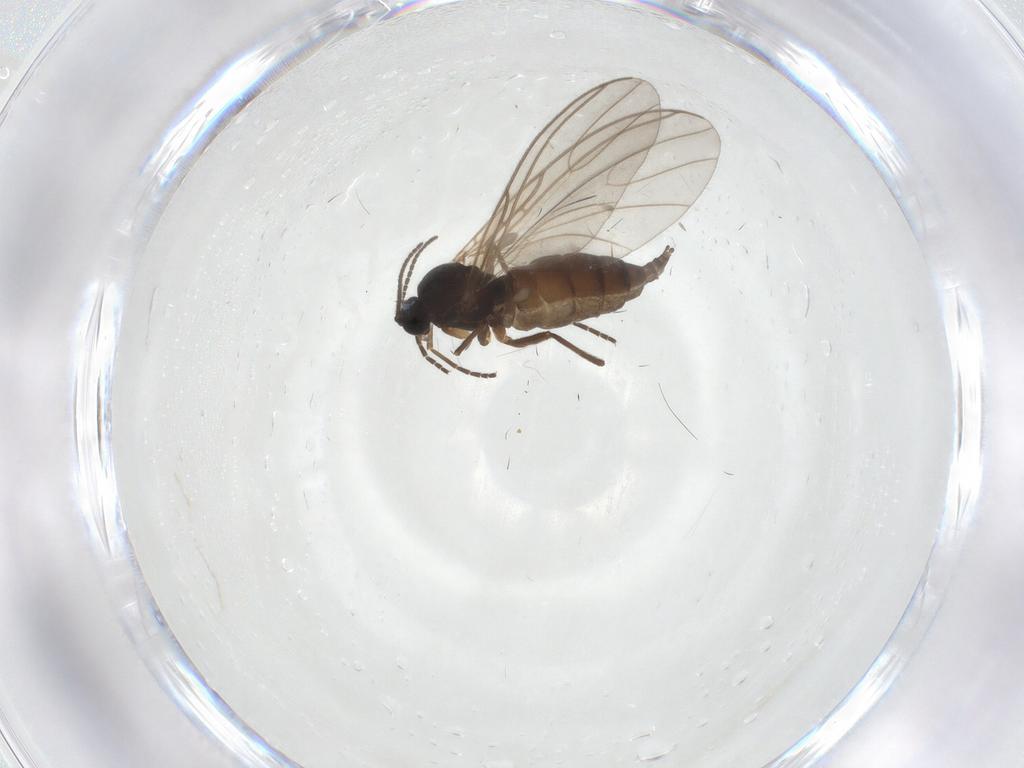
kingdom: Animalia
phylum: Arthropoda
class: Insecta
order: Diptera
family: Sciaridae
